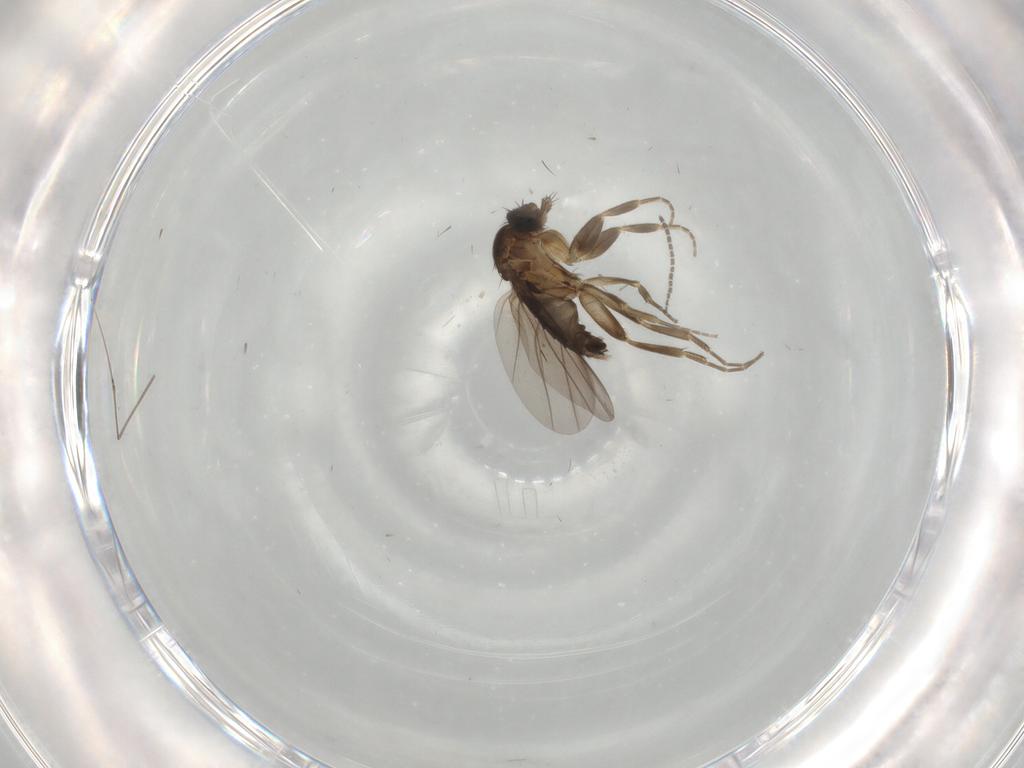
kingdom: Animalia
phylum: Arthropoda
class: Insecta
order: Diptera
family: Sciaridae
